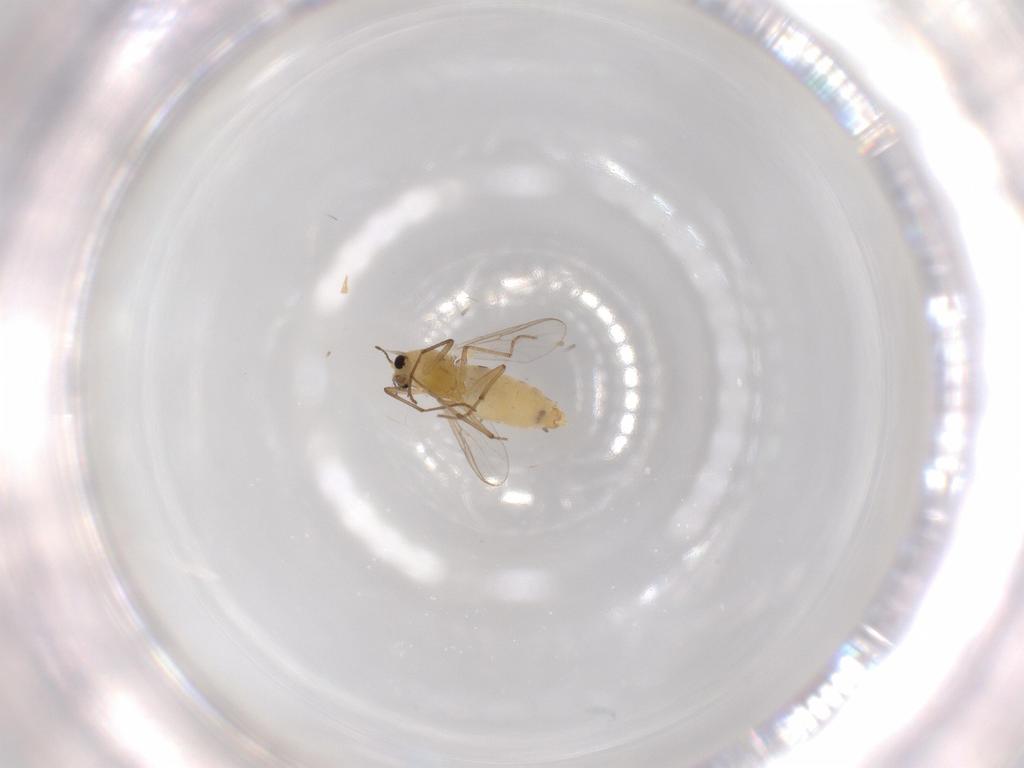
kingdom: Animalia
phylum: Arthropoda
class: Insecta
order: Diptera
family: Chironomidae
